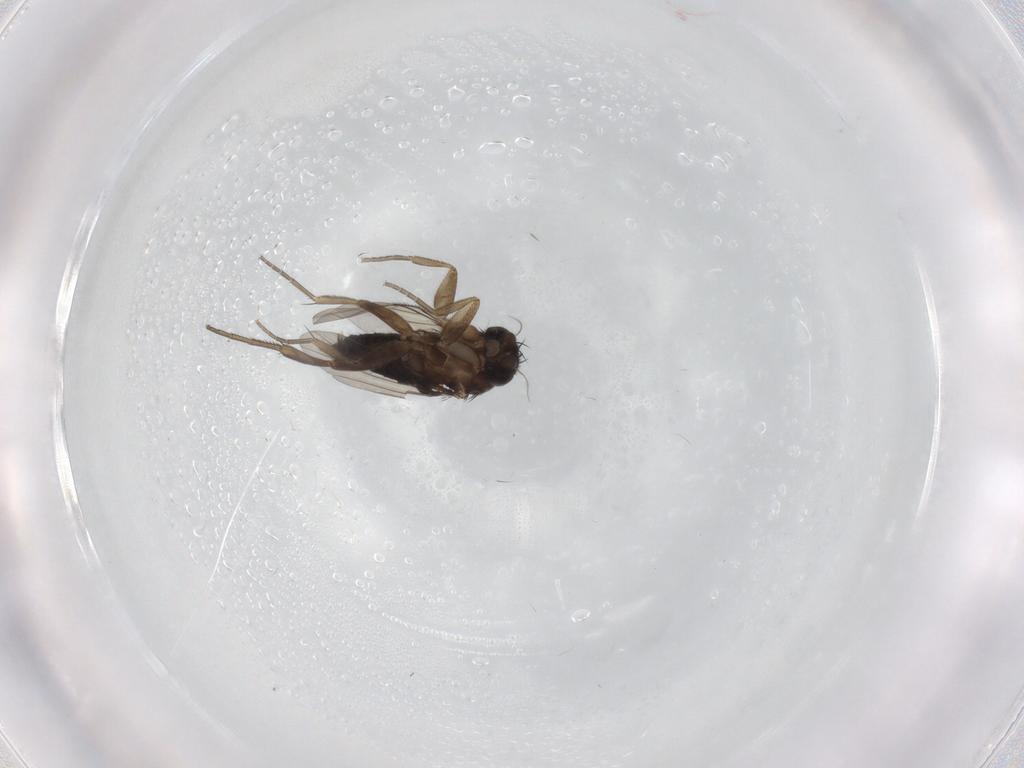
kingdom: Animalia
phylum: Arthropoda
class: Insecta
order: Diptera
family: Phoridae
